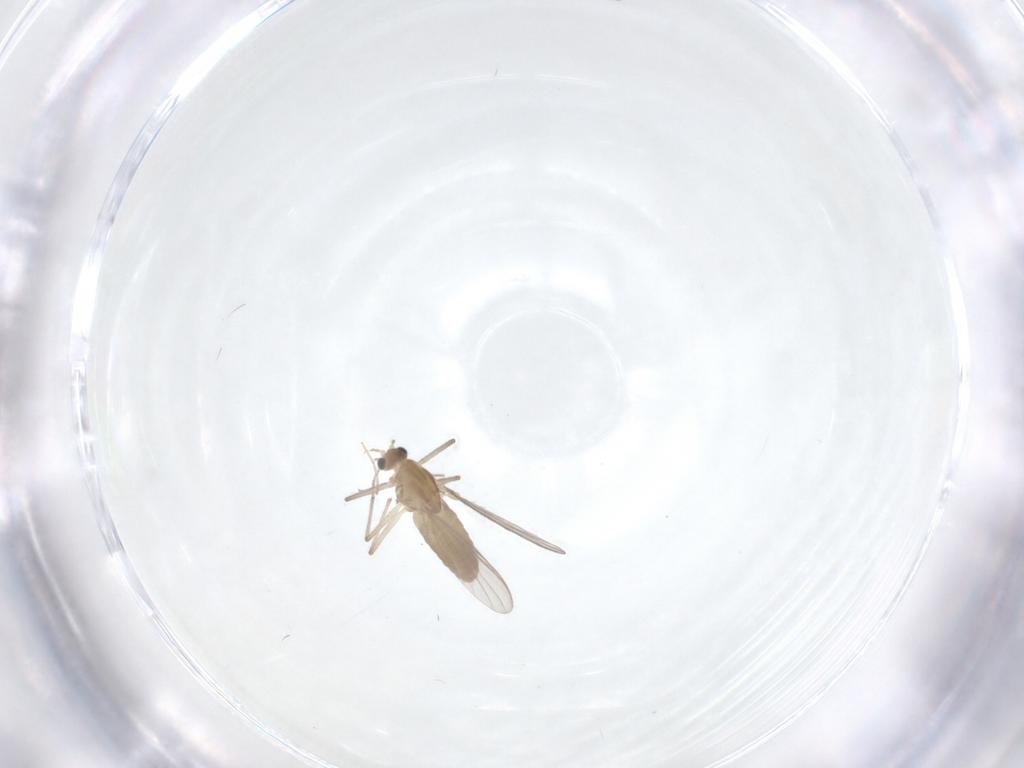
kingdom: Animalia
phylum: Arthropoda
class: Insecta
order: Diptera
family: Chironomidae
